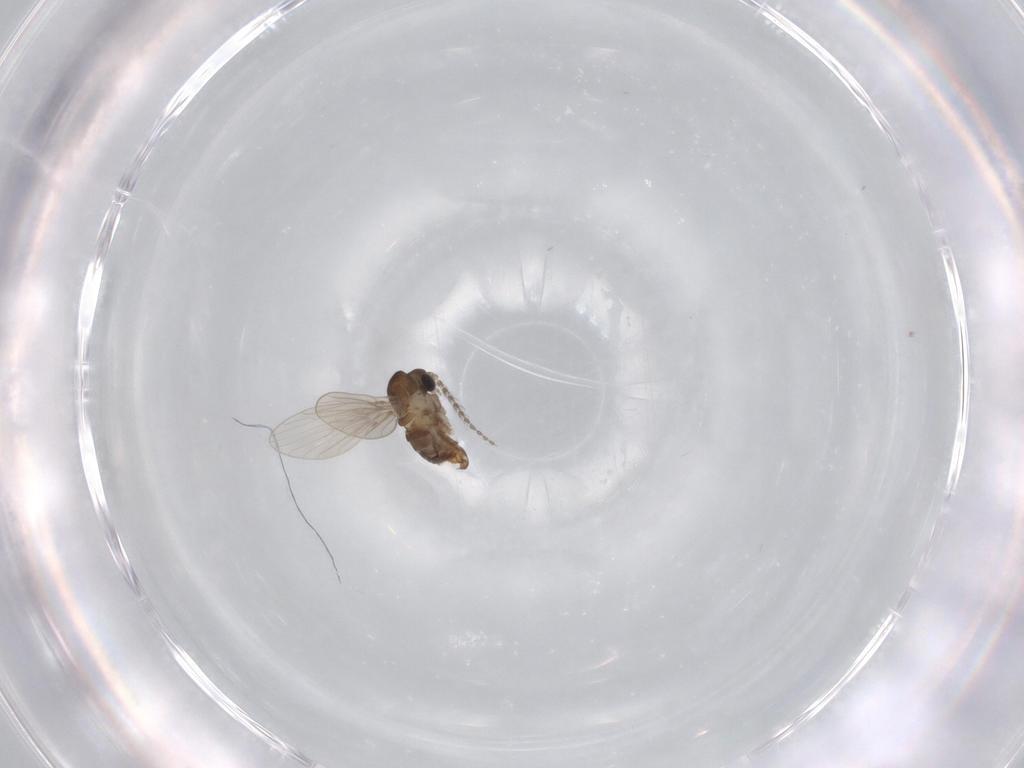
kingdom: Animalia
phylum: Arthropoda
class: Insecta
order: Diptera
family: Psychodidae
